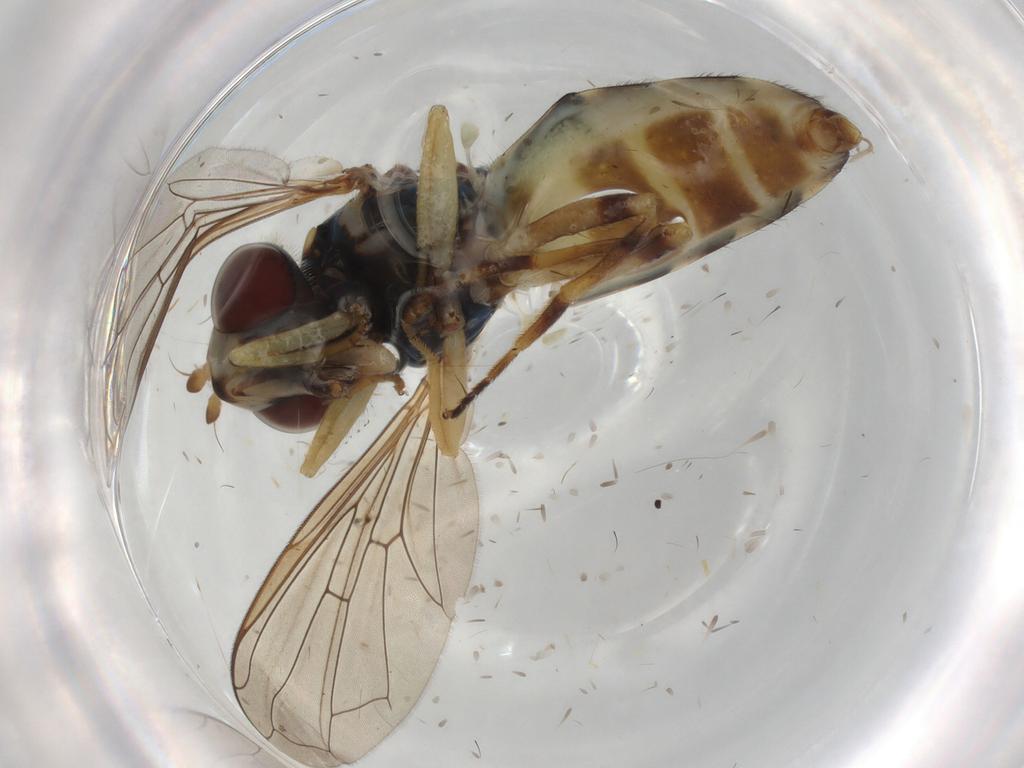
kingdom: Animalia
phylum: Arthropoda
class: Insecta
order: Diptera
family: Syrphidae
